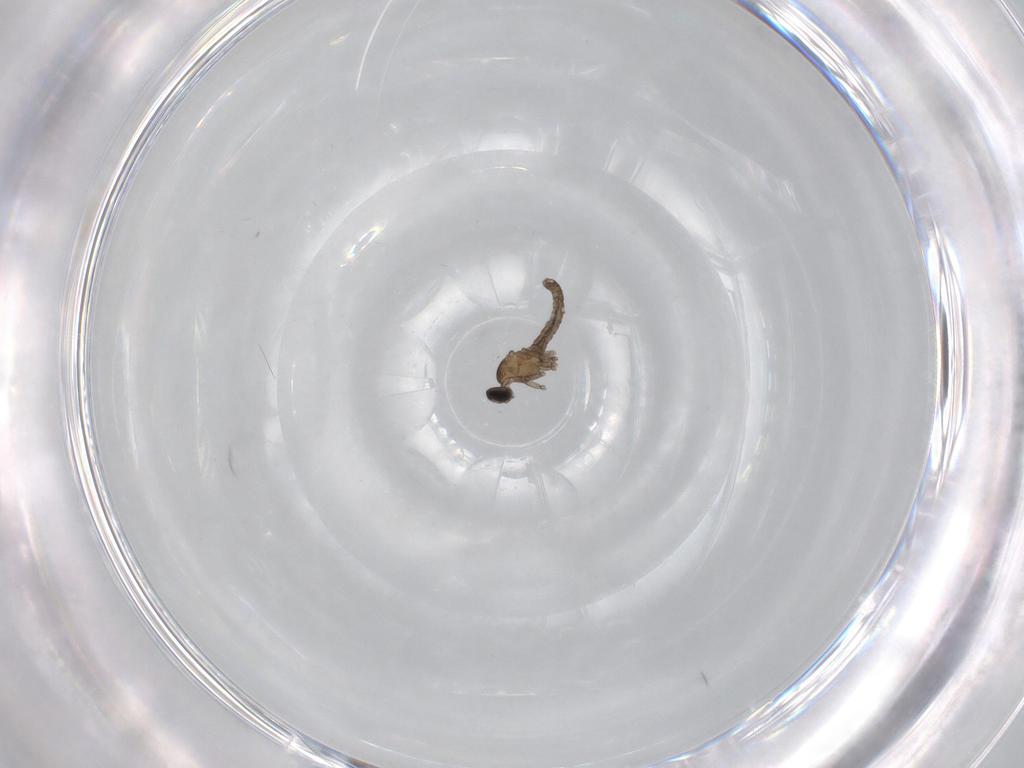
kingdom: Animalia
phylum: Arthropoda
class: Insecta
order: Diptera
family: Cecidomyiidae
